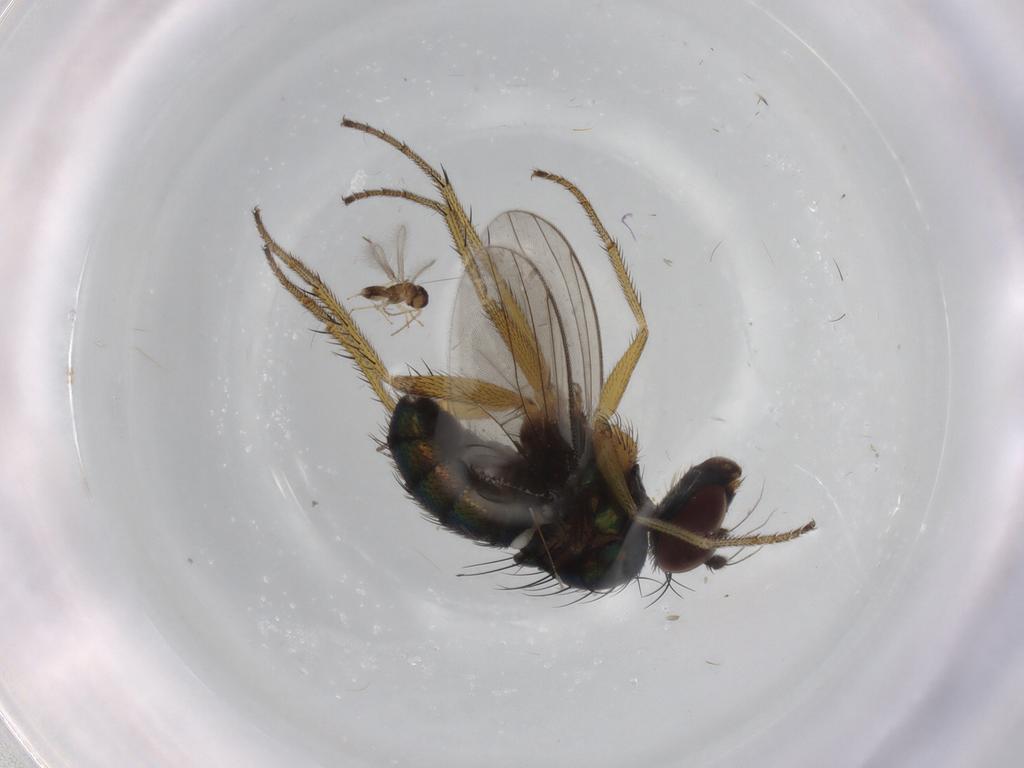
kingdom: Animalia
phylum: Arthropoda
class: Insecta
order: Diptera
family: Dolichopodidae
